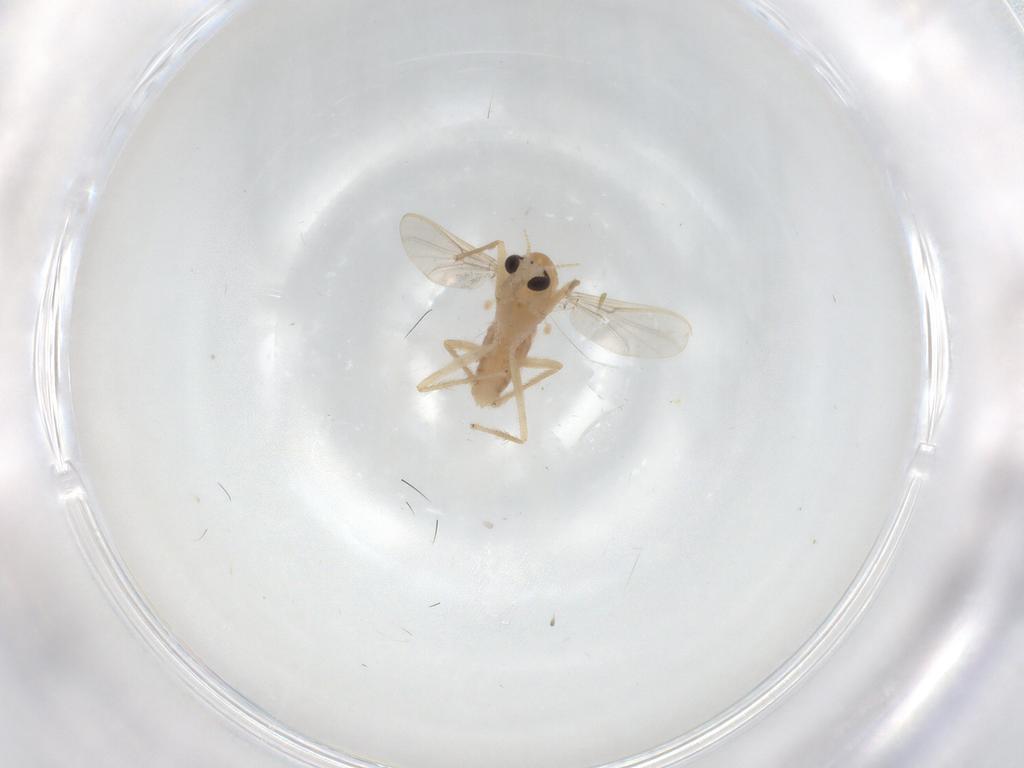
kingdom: Animalia
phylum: Arthropoda
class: Insecta
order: Diptera
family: Chironomidae
